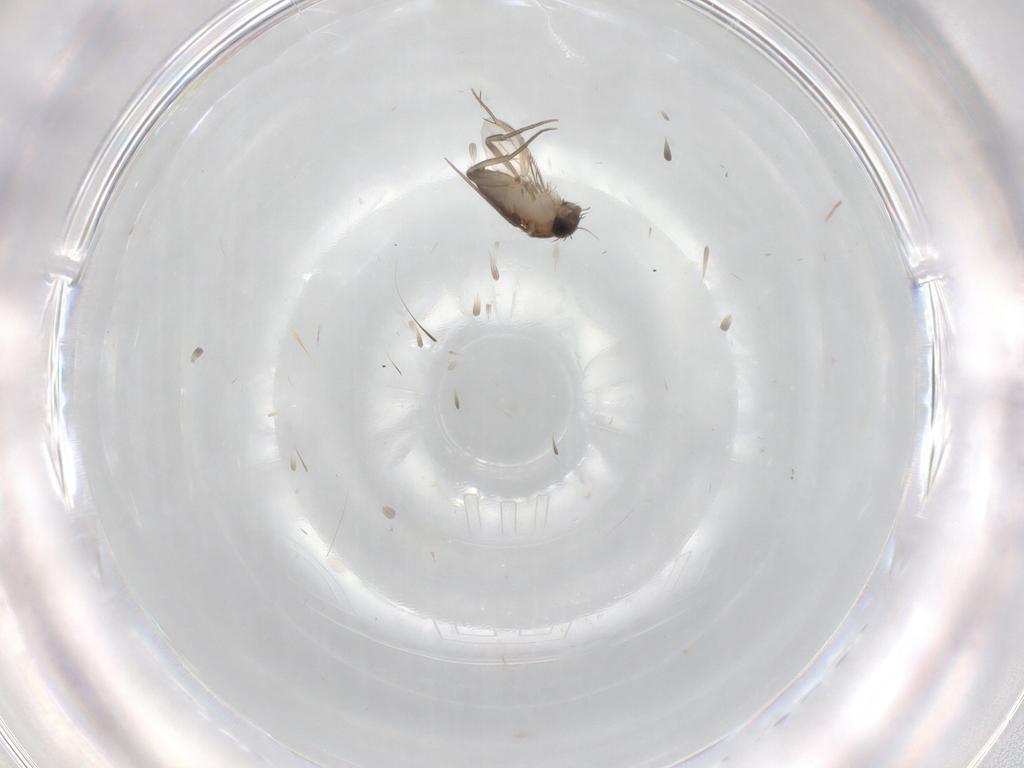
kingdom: Animalia
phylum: Arthropoda
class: Insecta
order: Diptera
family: Phoridae
